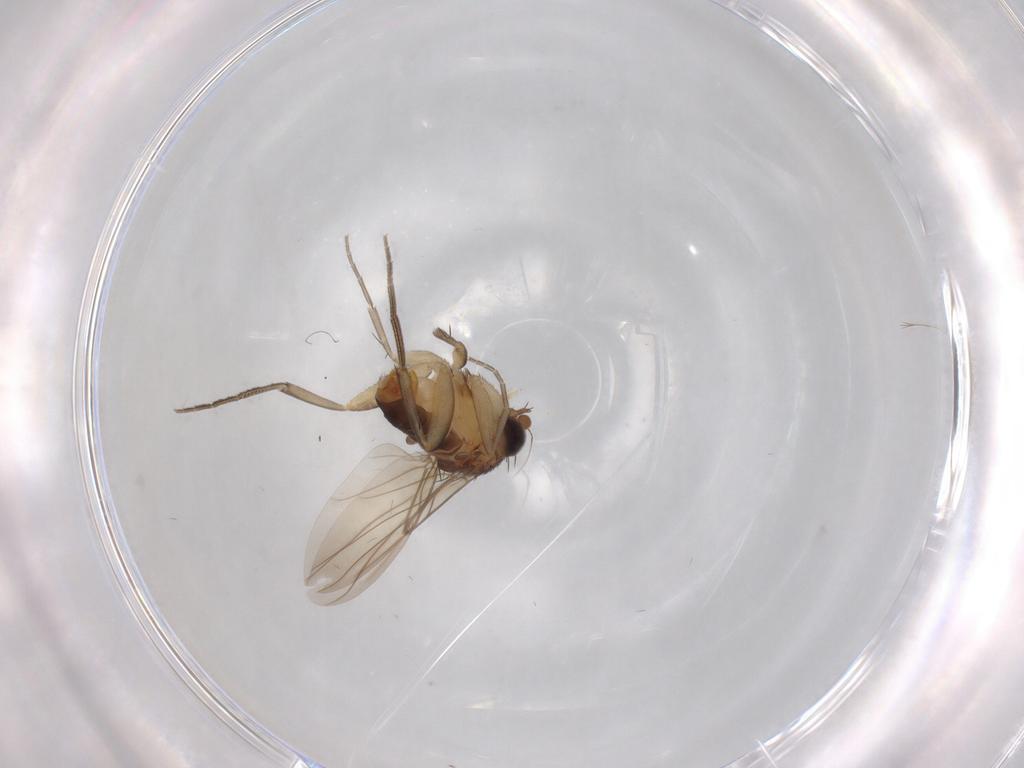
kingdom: Animalia
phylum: Arthropoda
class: Insecta
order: Diptera
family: Phoridae
